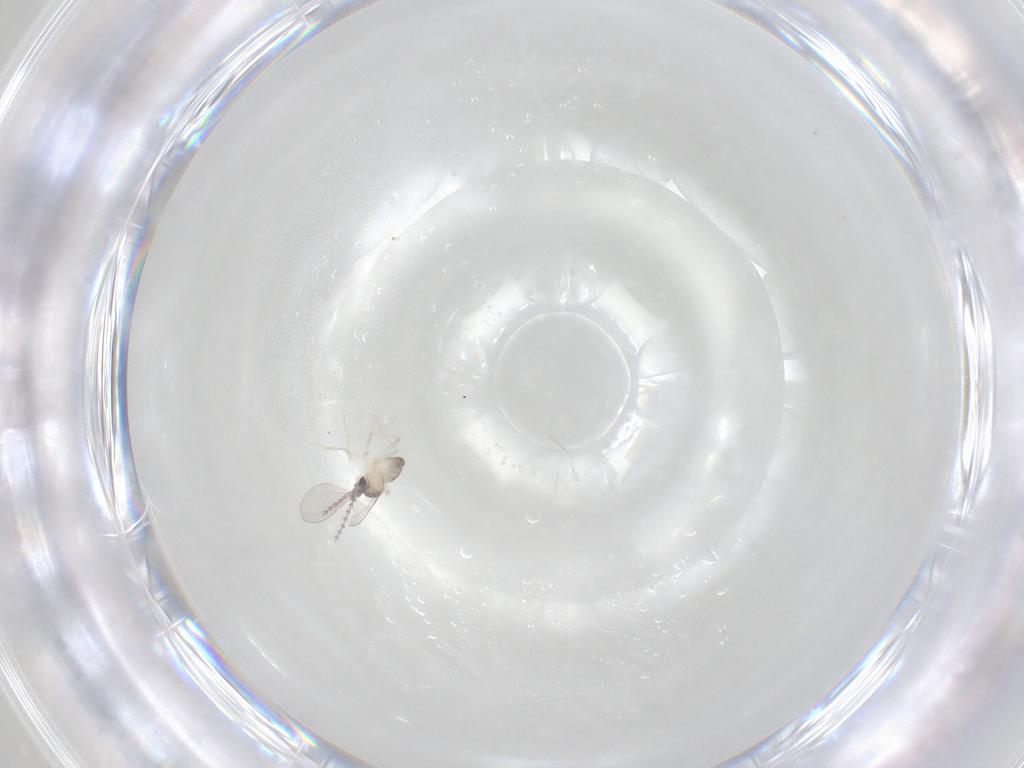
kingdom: Animalia
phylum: Arthropoda
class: Insecta
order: Diptera
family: Cecidomyiidae
